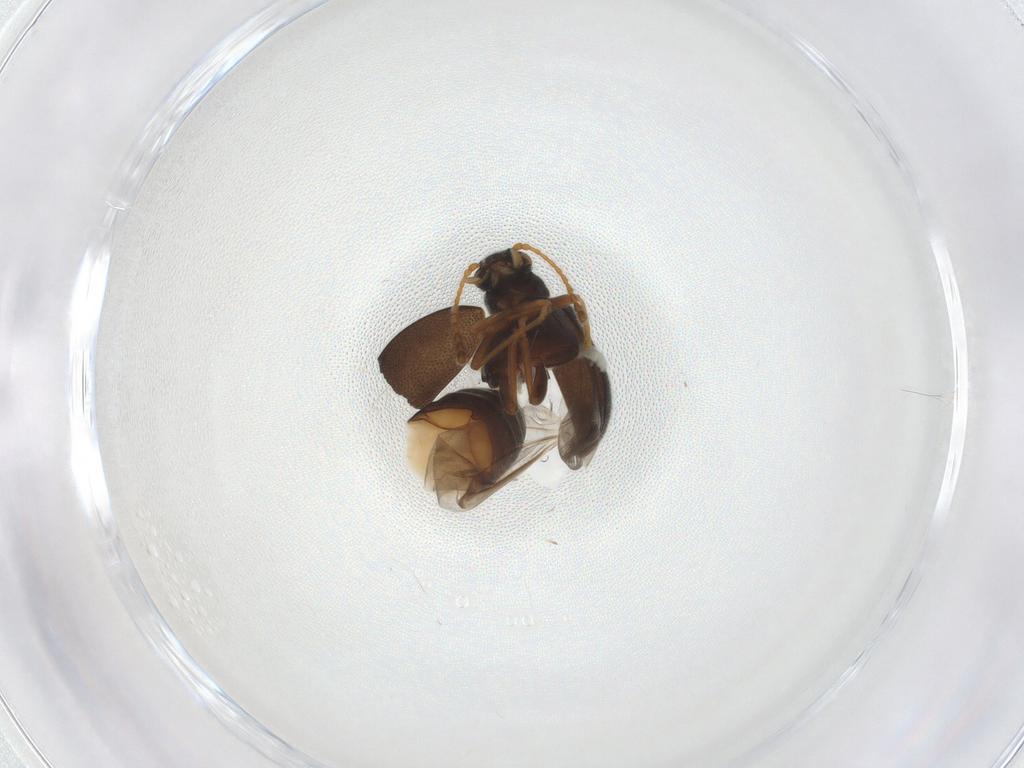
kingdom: Animalia
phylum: Arthropoda
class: Insecta
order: Coleoptera
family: Aderidae
